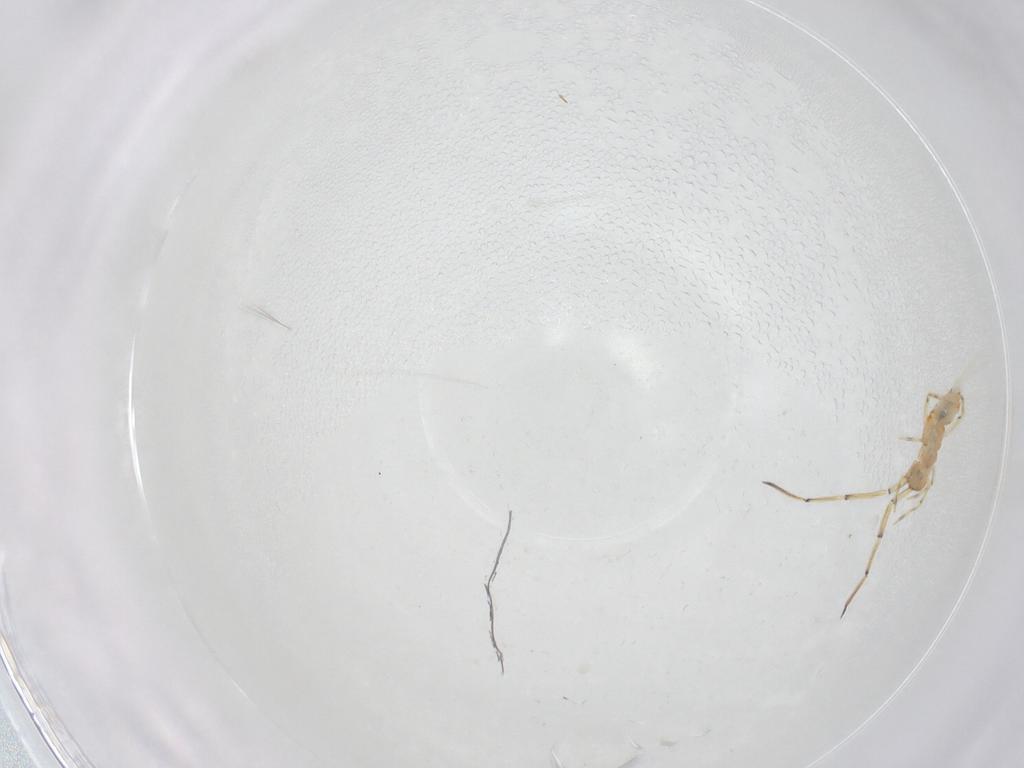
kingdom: Animalia
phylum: Arthropoda
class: Collembola
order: Entomobryomorpha
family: Paronellidae
